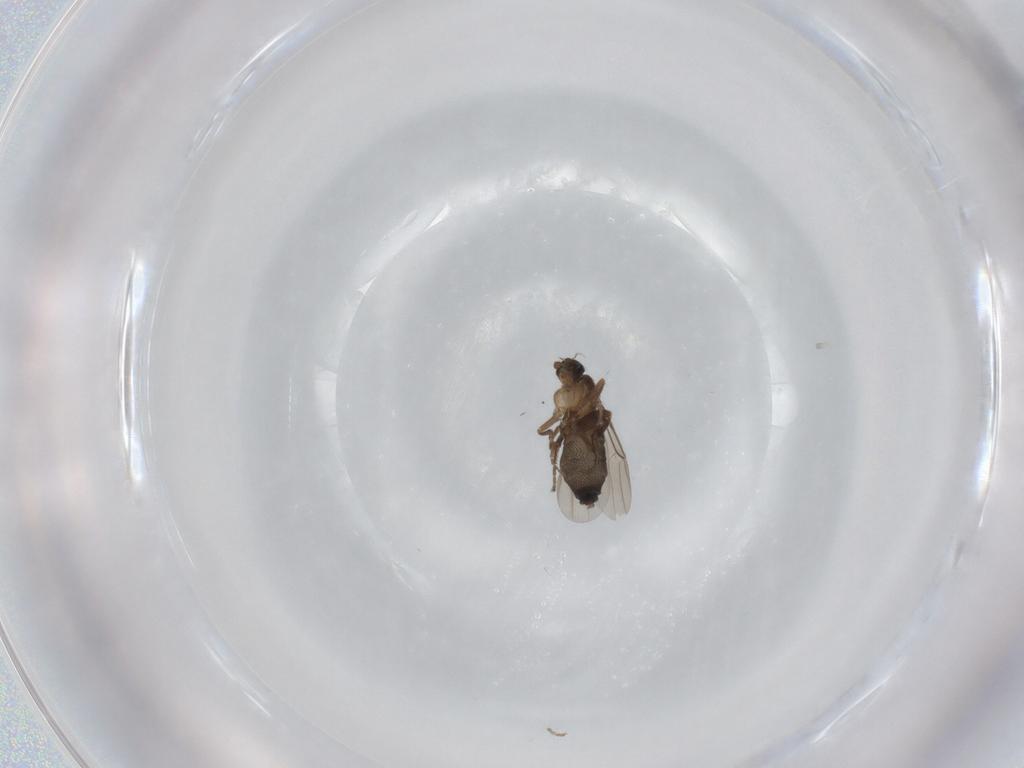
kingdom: Animalia
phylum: Arthropoda
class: Insecta
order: Diptera
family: Phoridae
